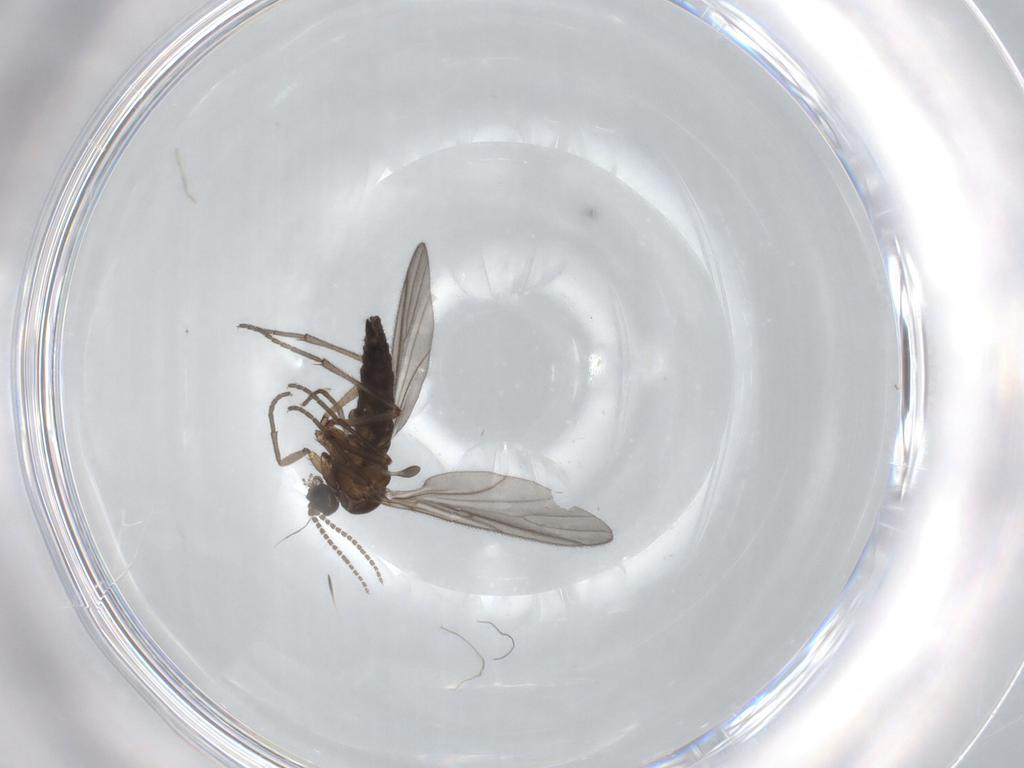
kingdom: Animalia
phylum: Arthropoda
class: Insecta
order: Diptera
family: Sciaridae
